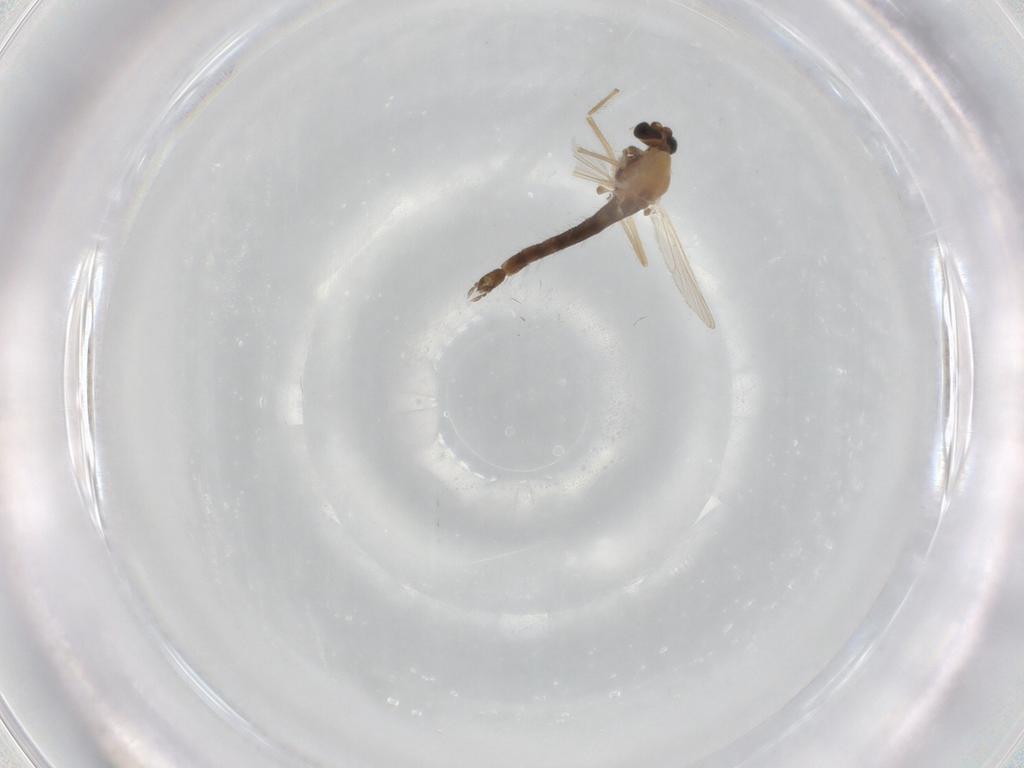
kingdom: Animalia
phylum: Arthropoda
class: Insecta
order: Diptera
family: Chironomidae
